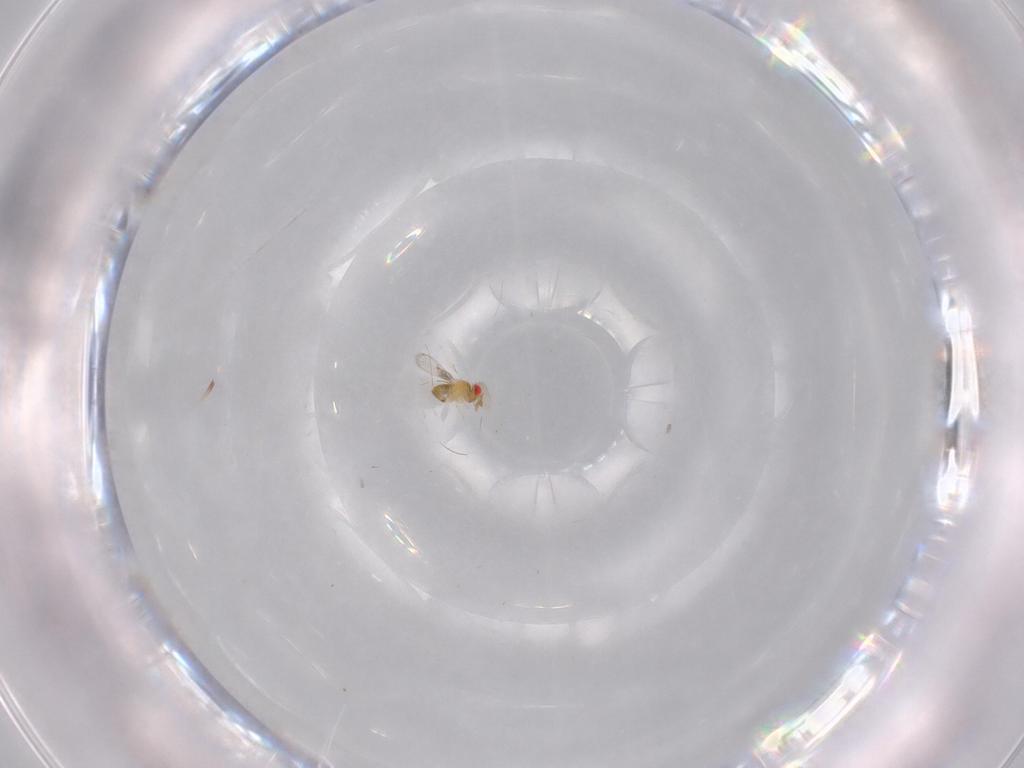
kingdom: Animalia
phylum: Arthropoda
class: Insecta
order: Hymenoptera
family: Trichogrammatidae
